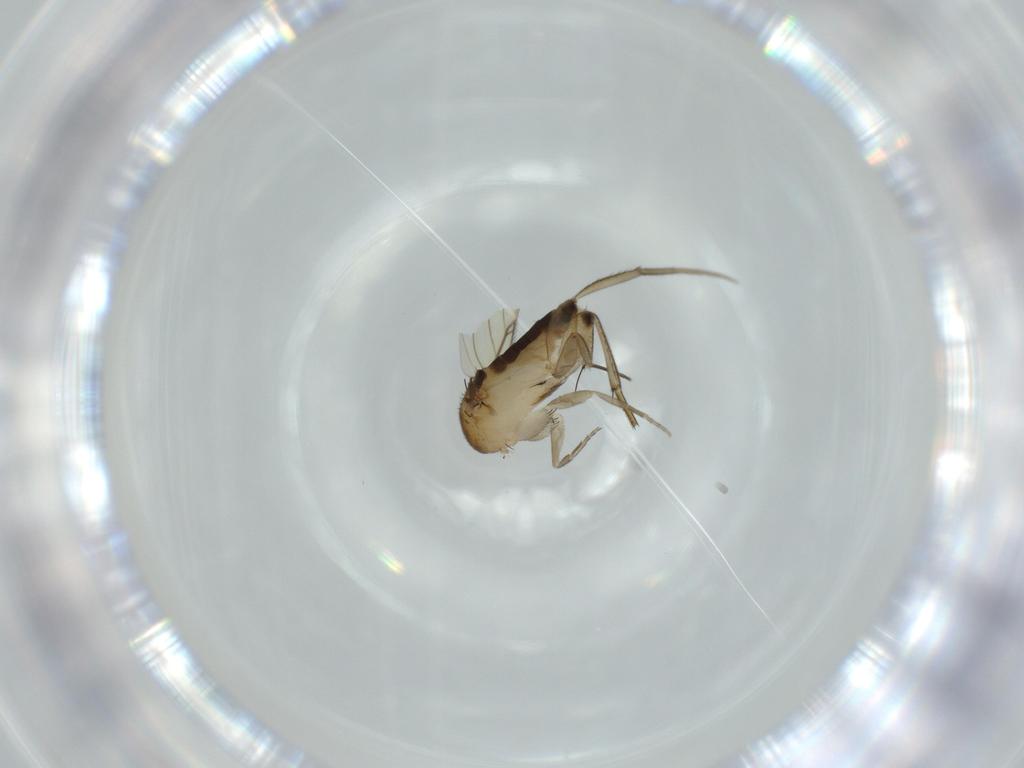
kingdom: Animalia
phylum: Arthropoda
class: Insecta
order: Diptera
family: Phoridae
